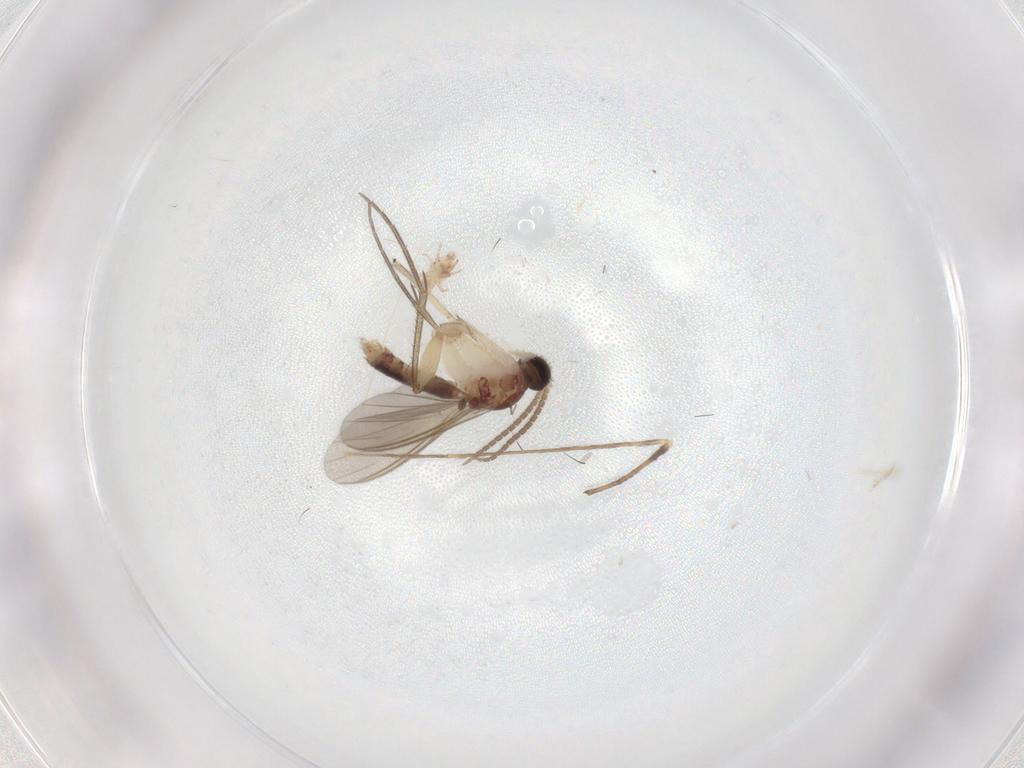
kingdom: Animalia
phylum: Arthropoda
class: Insecta
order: Diptera
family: Mycetophilidae
